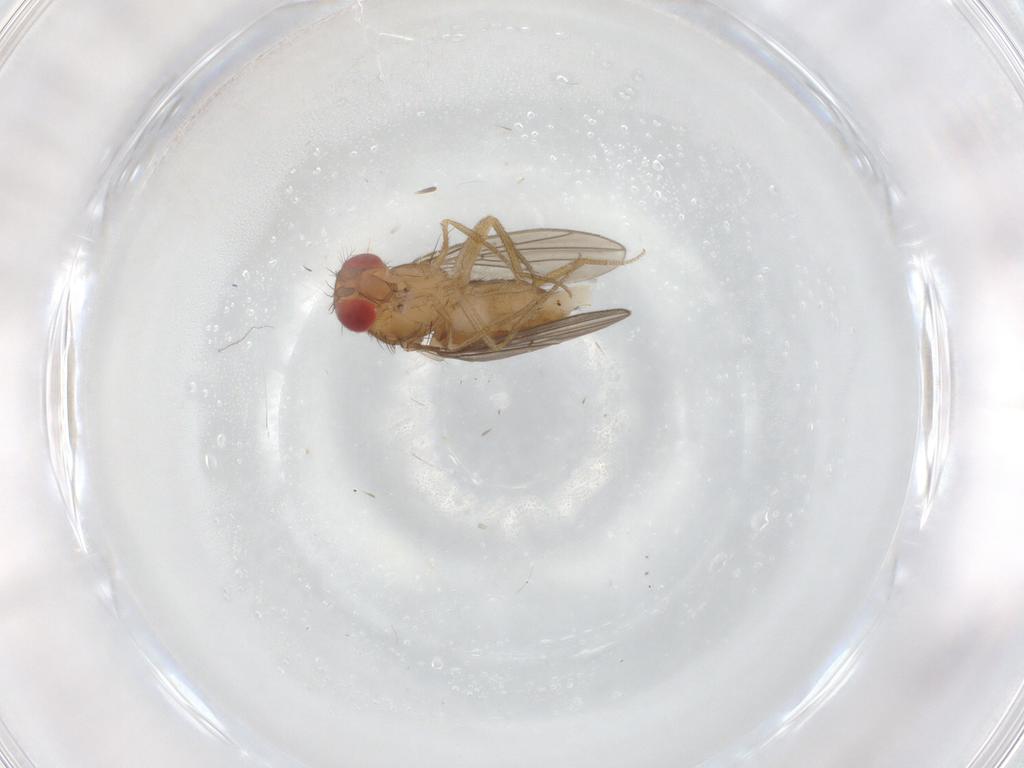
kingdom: Animalia
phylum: Arthropoda
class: Insecta
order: Diptera
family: Drosophilidae
